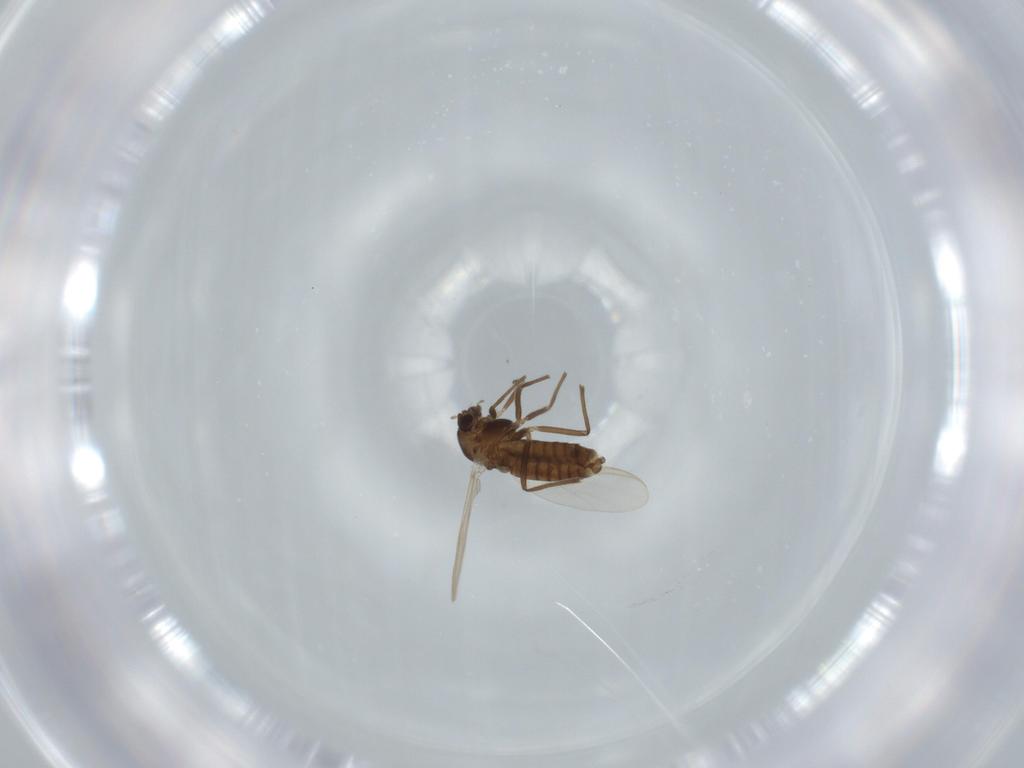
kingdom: Animalia
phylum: Arthropoda
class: Insecta
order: Diptera
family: Chironomidae
